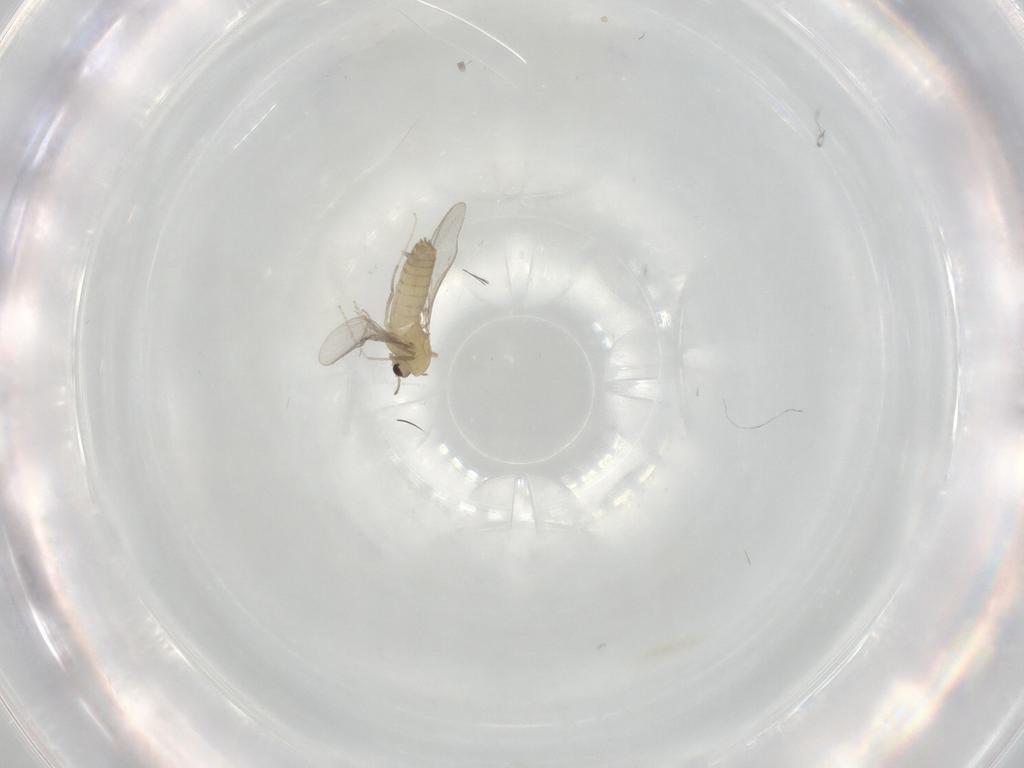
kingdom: Animalia
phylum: Arthropoda
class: Insecta
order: Diptera
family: Chironomidae
